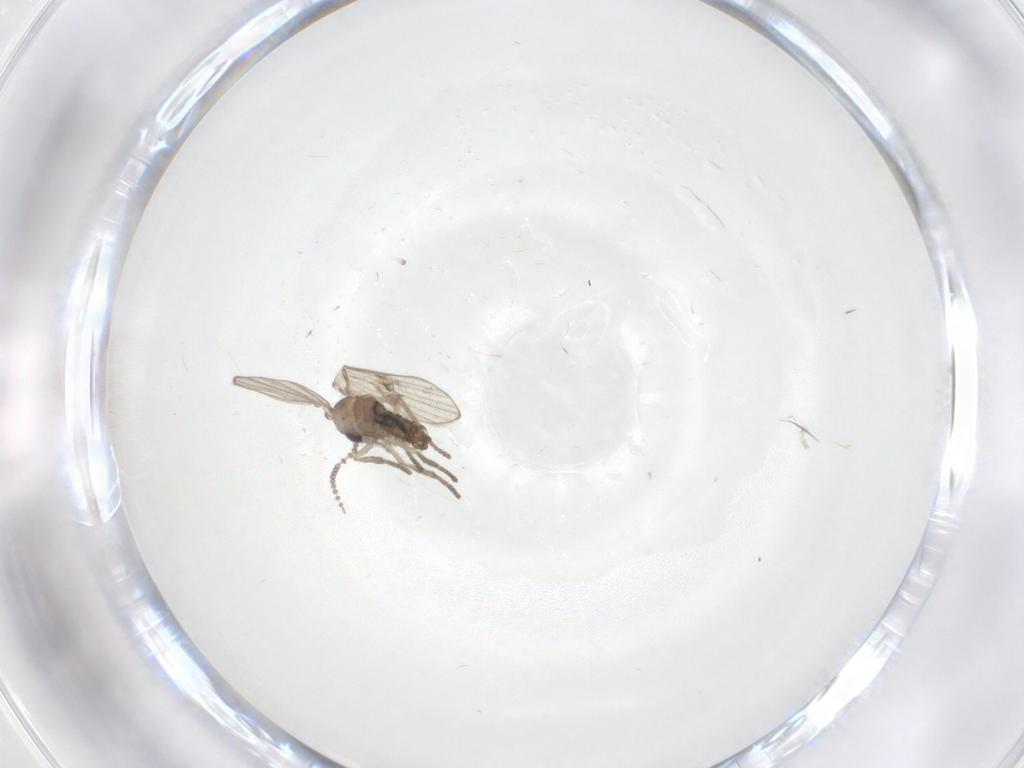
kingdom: Animalia
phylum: Arthropoda
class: Insecta
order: Diptera
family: Psychodidae
